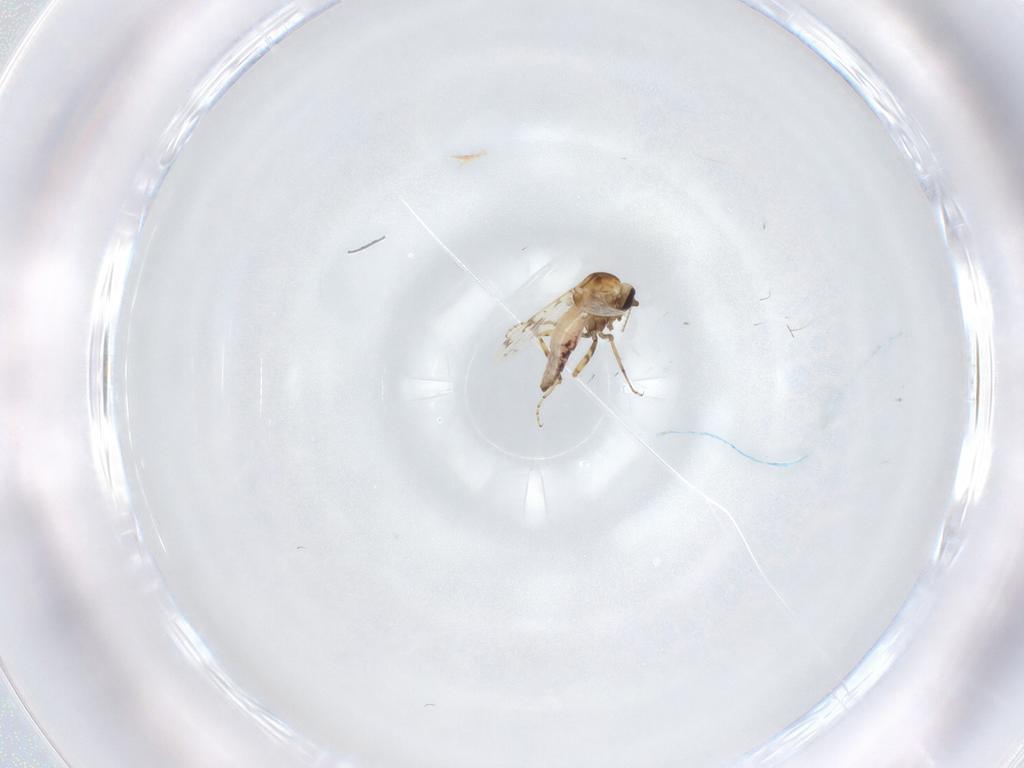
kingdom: Animalia
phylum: Arthropoda
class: Insecta
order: Diptera
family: Ceratopogonidae
